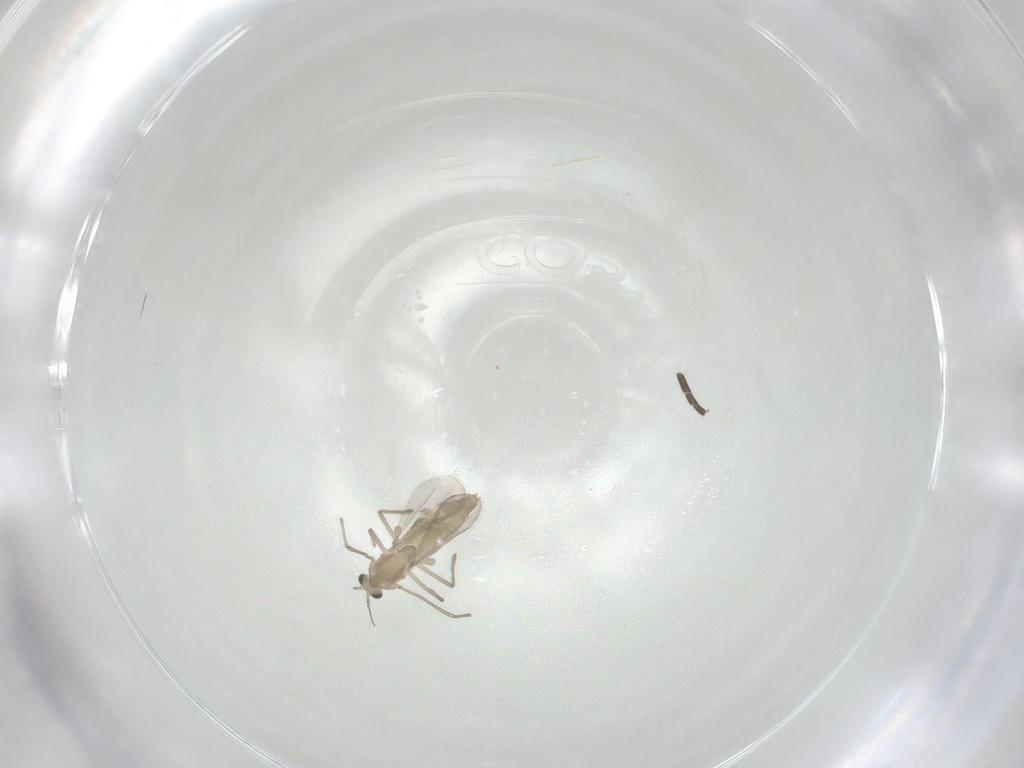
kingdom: Animalia
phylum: Arthropoda
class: Insecta
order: Diptera
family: Chironomidae
